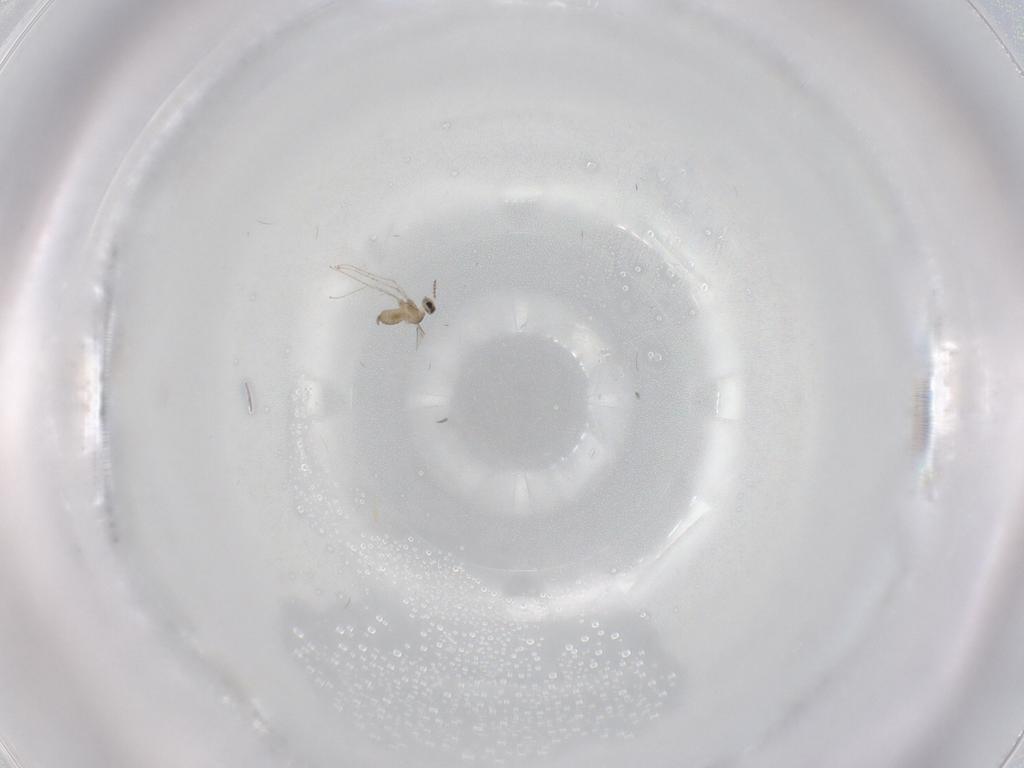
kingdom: Animalia
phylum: Arthropoda
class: Insecta
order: Diptera
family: Cecidomyiidae
